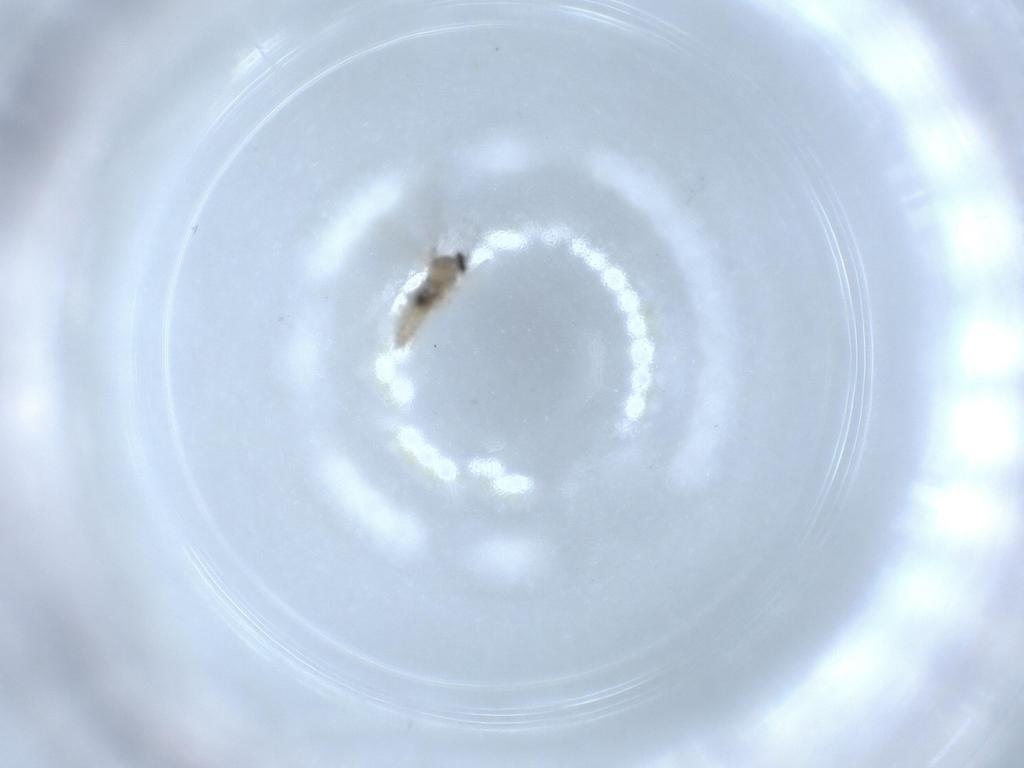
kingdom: Animalia
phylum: Arthropoda
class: Insecta
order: Diptera
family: Cecidomyiidae
